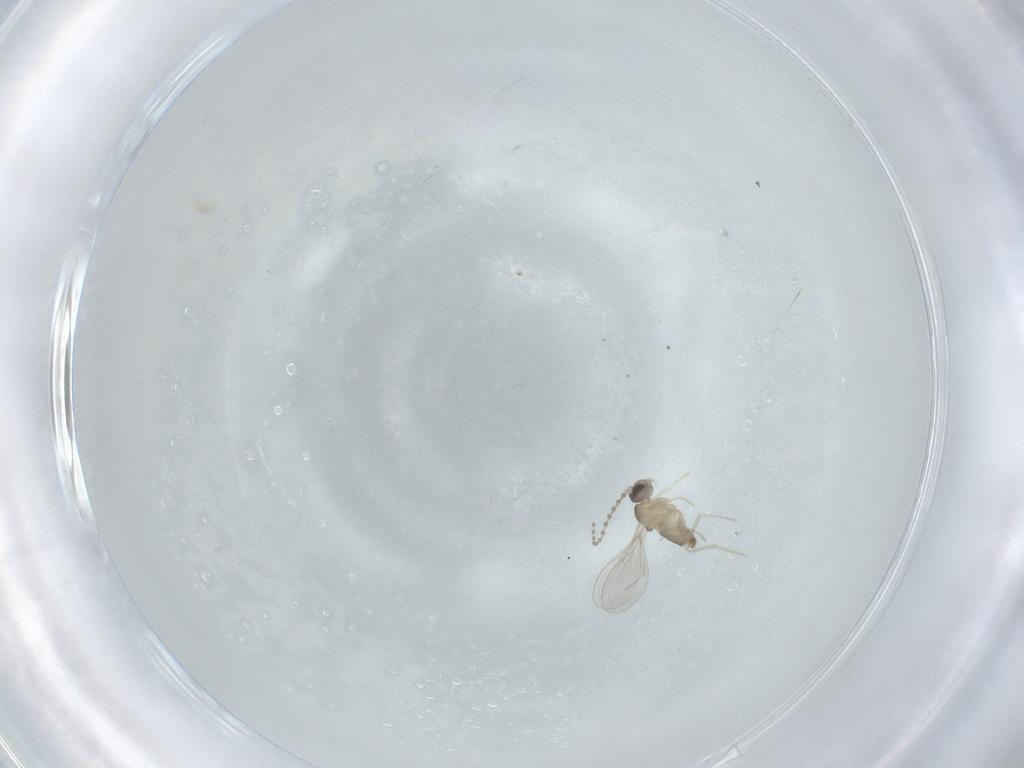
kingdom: Animalia
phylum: Arthropoda
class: Insecta
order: Diptera
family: Cecidomyiidae
